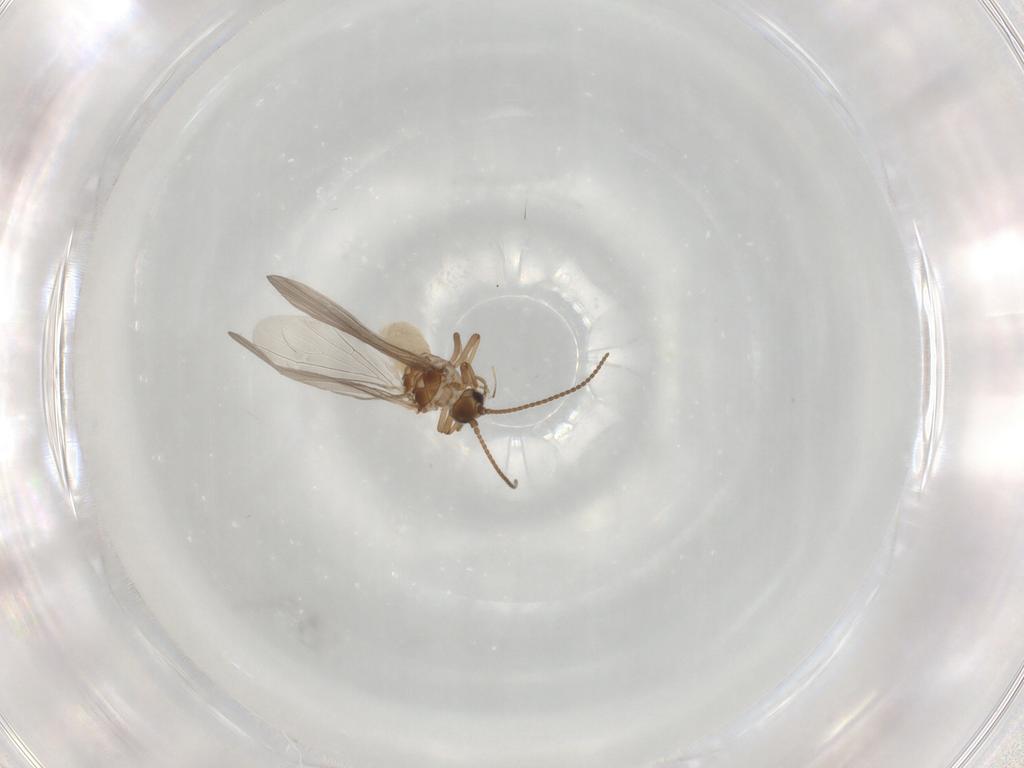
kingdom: Animalia
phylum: Arthropoda
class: Insecta
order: Neuroptera
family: Coniopterygidae
